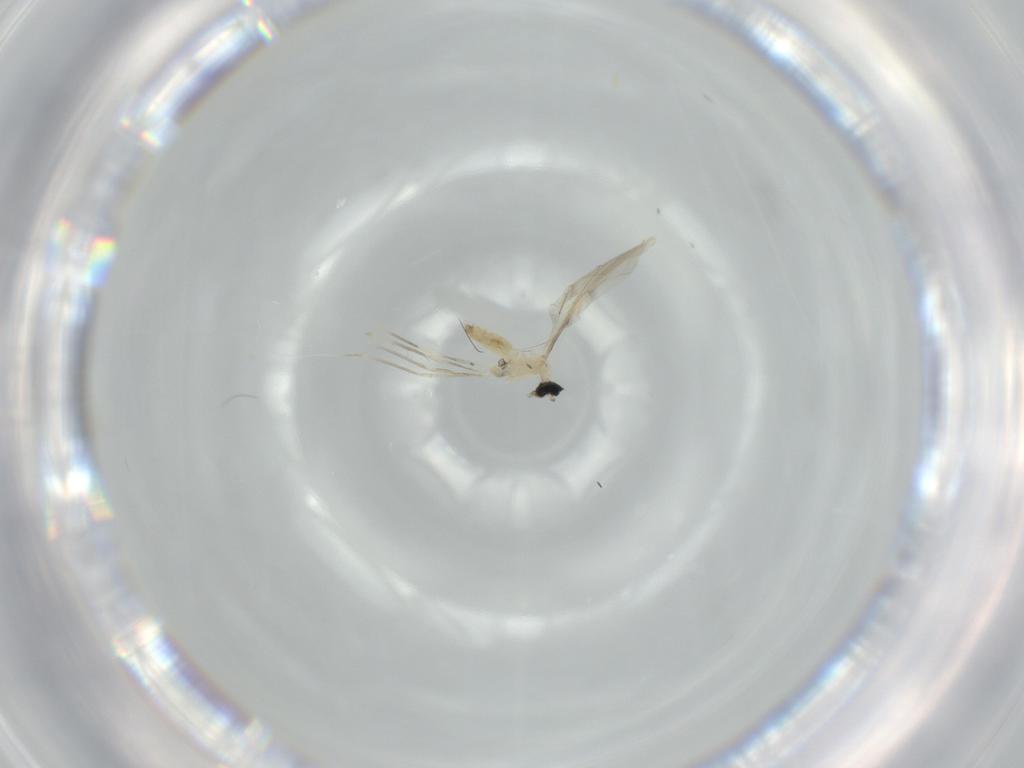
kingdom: Animalia
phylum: Arthropoda
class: Insecta
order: Diptera
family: Cecidomyiidae
